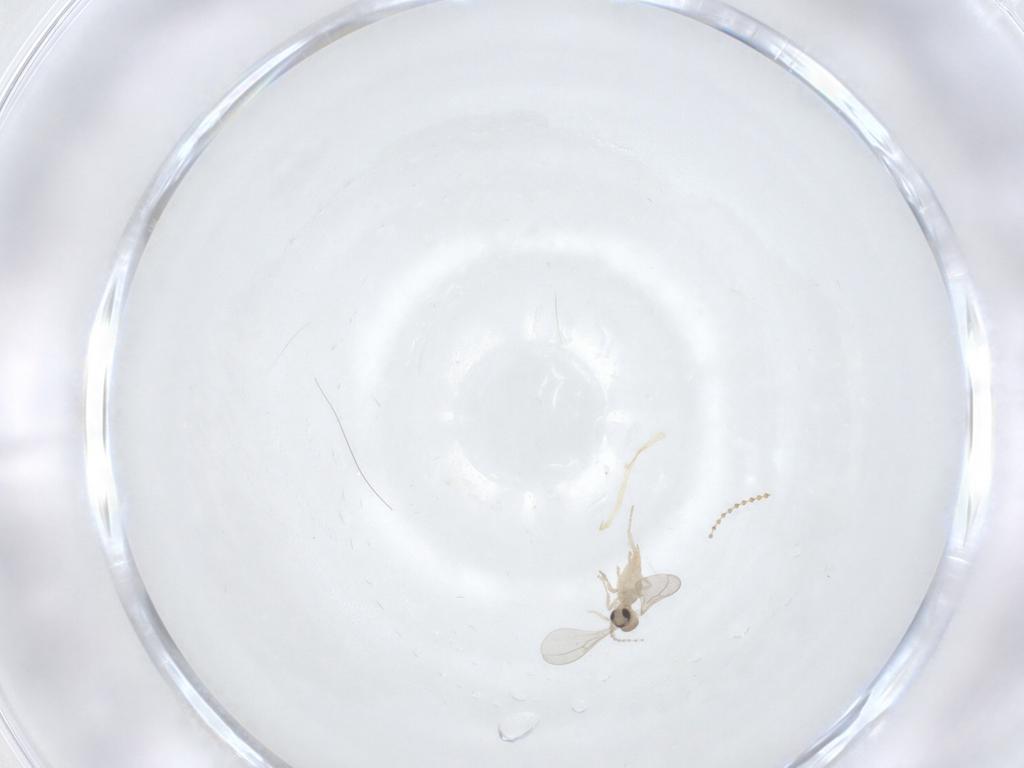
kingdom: Animalia
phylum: Arthropoda
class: Insecta
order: Diptera
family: Cecidomyiidae
